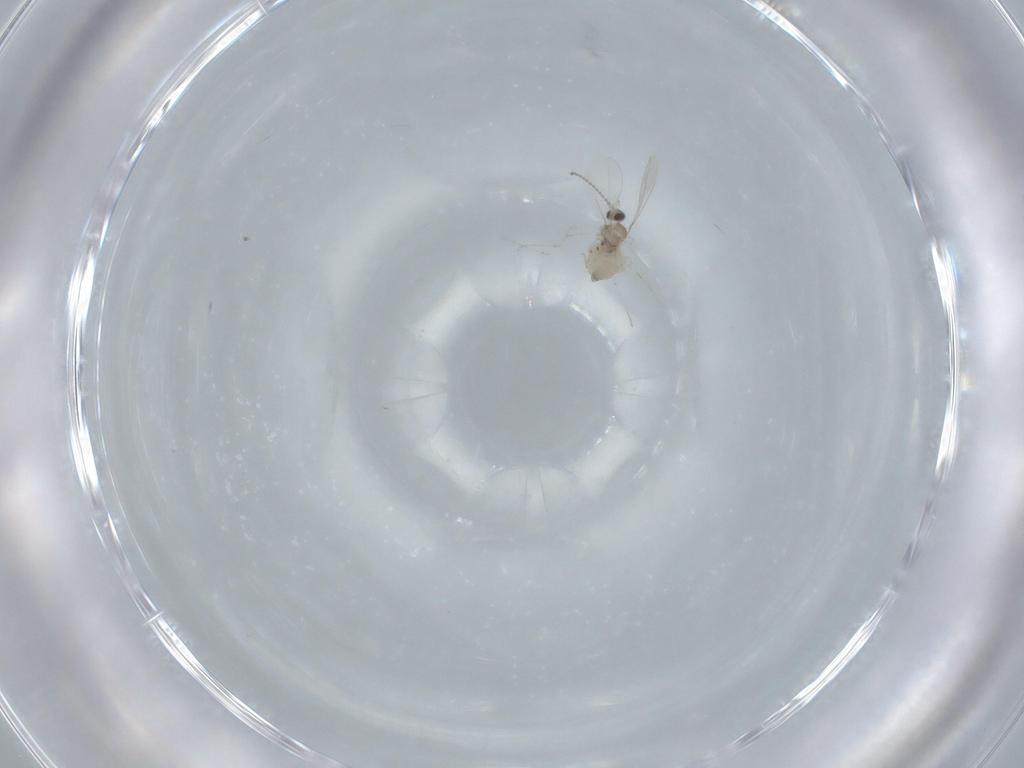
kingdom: Animalia
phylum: Arthropoda
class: Insecta
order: Diptera
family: Cecidomyiidae
